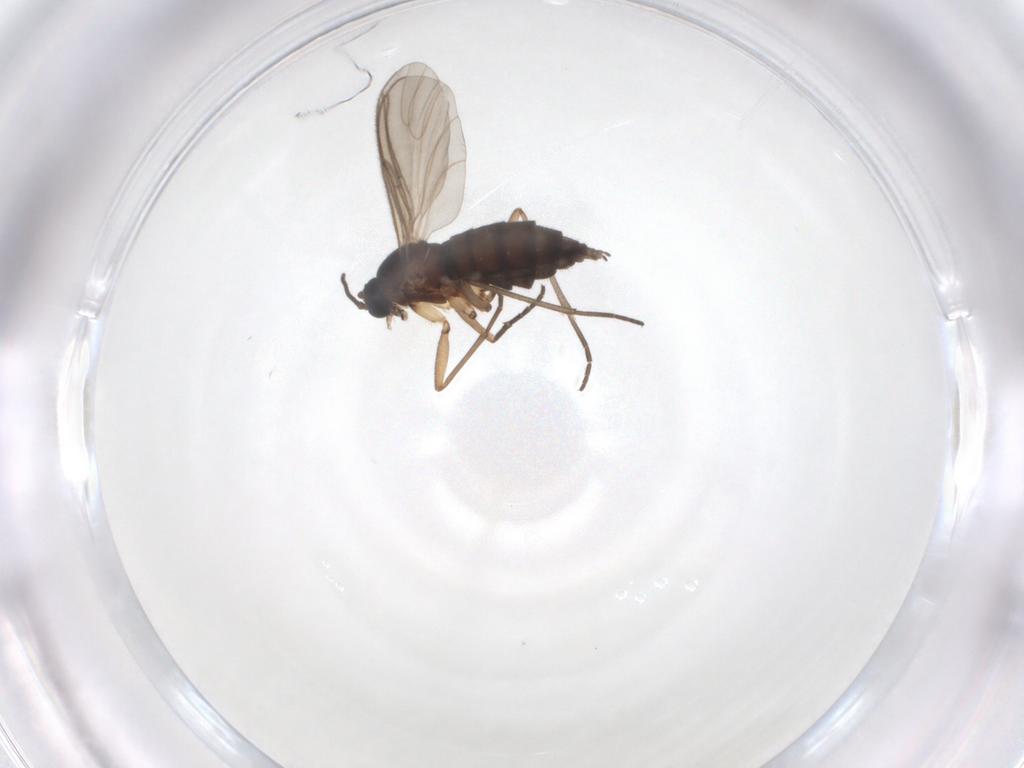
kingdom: Animalia
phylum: Arthropoda
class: Insecta
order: Diptera
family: Sciaridae
